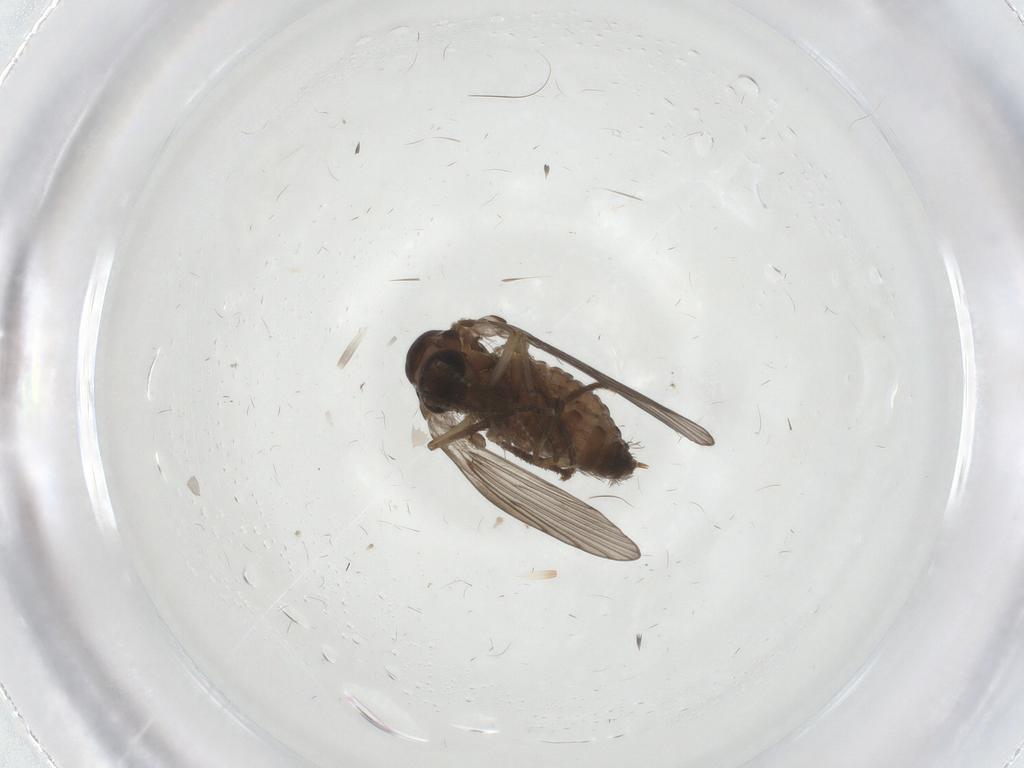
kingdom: Animalia
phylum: Arthropoda
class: Insecta
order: Diptera
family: Psychodidae
